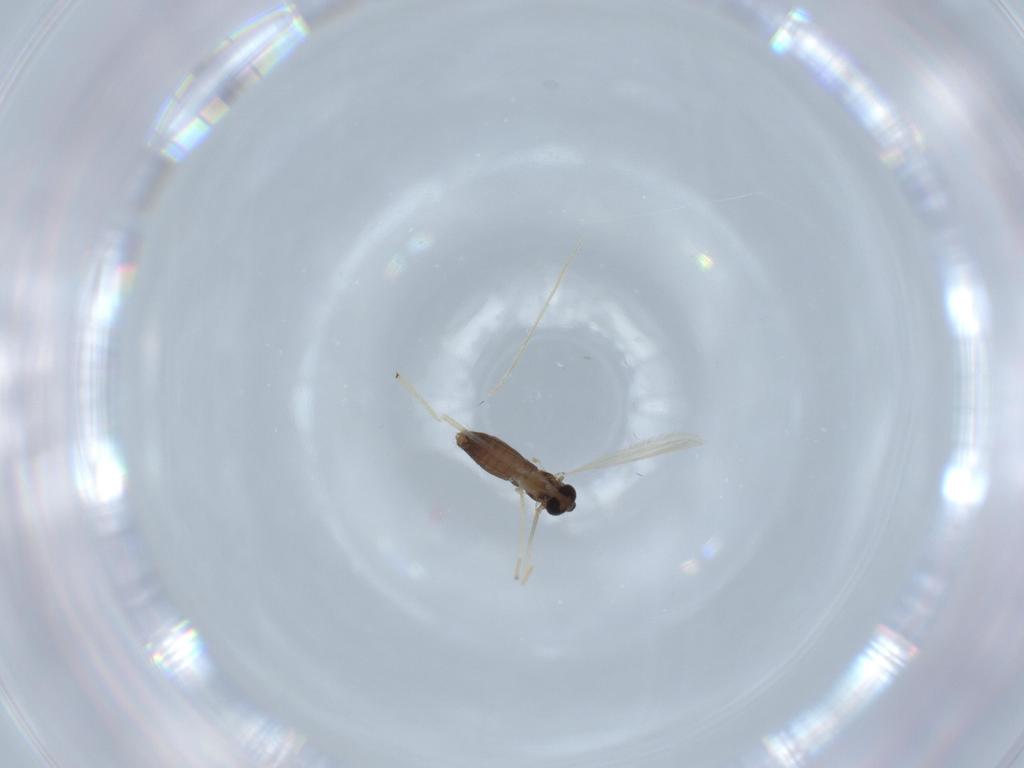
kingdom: Animalia
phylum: Arthropoda
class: Insecta
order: Diptera
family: Chironomidae
